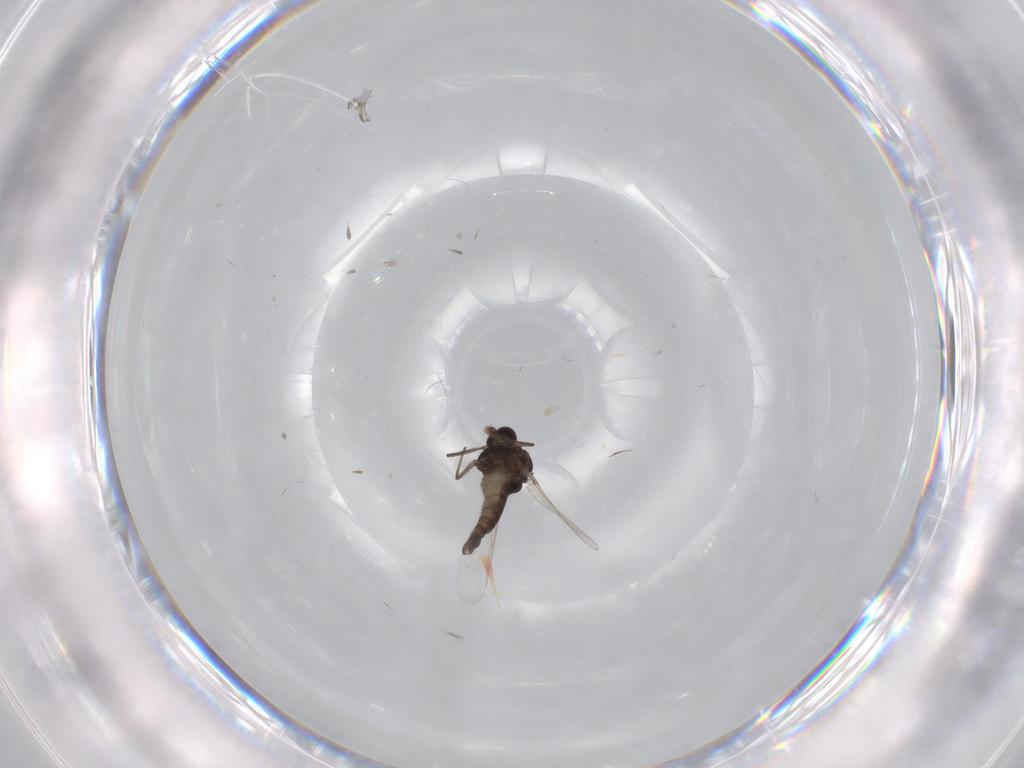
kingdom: Animalia
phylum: Arthropoda
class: Insecta
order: Diptera
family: Chironomidae
